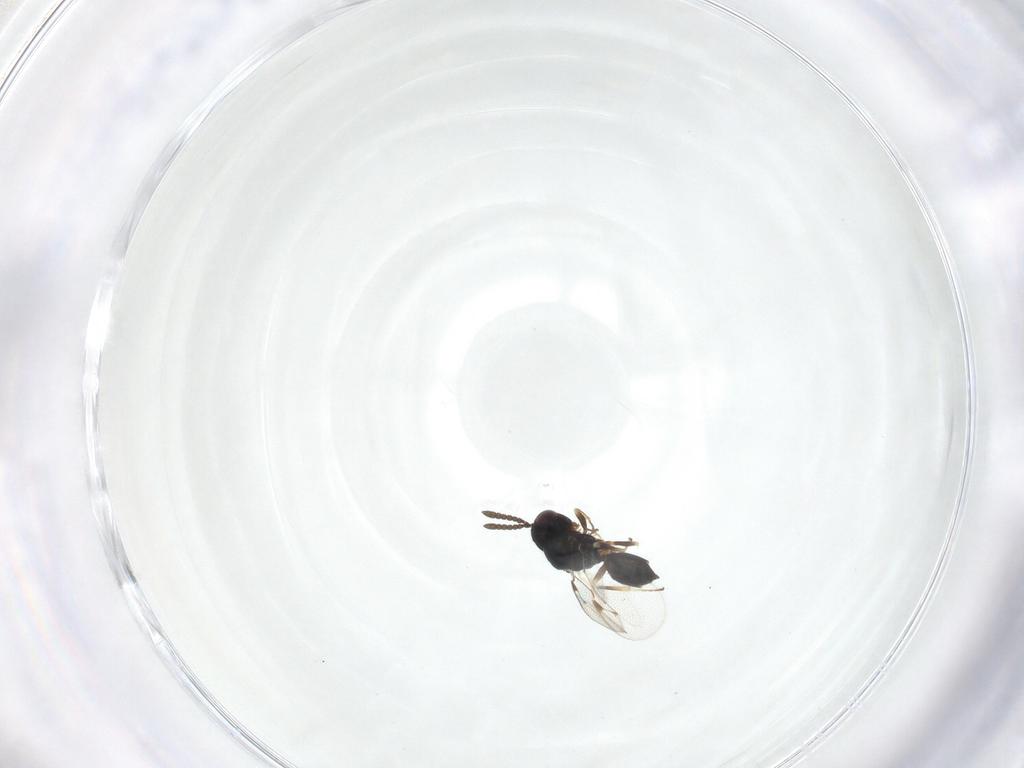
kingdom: Animalia
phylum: Arthropoda
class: Insecta
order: Hymenoptera
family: Pteromalidae
